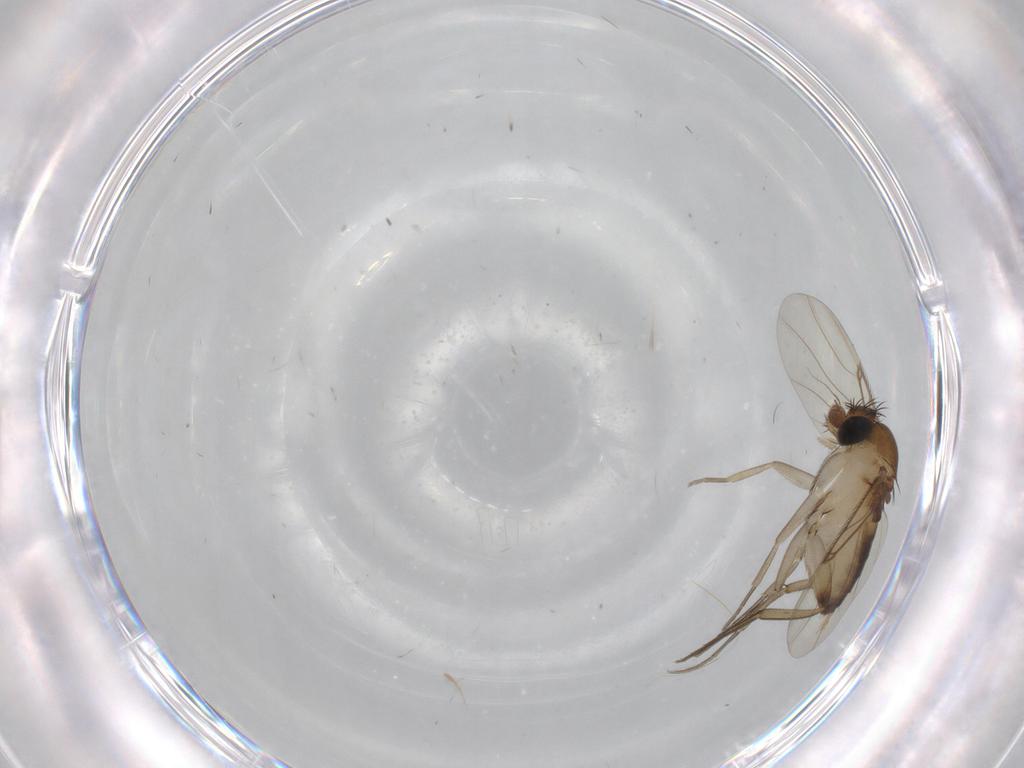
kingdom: Animalia
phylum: Arthropoda
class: Insecta
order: Diptera
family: Phoridae
